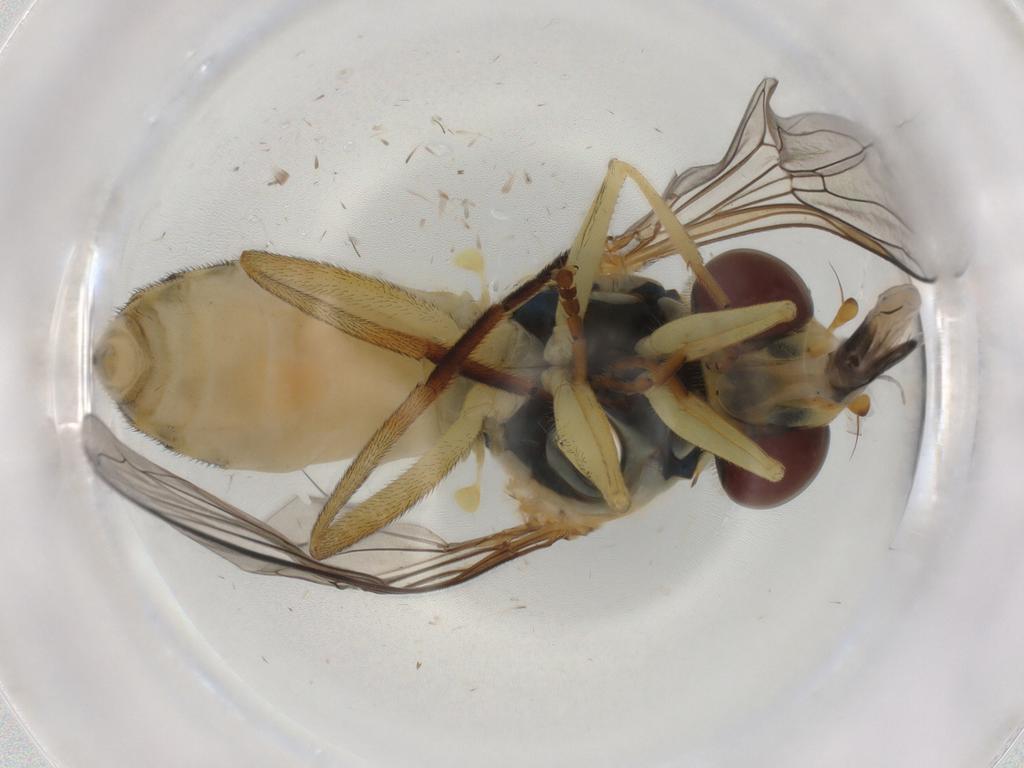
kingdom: Animalia
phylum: Arthropoda
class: Insecta
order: Diptera
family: Syrphidae
